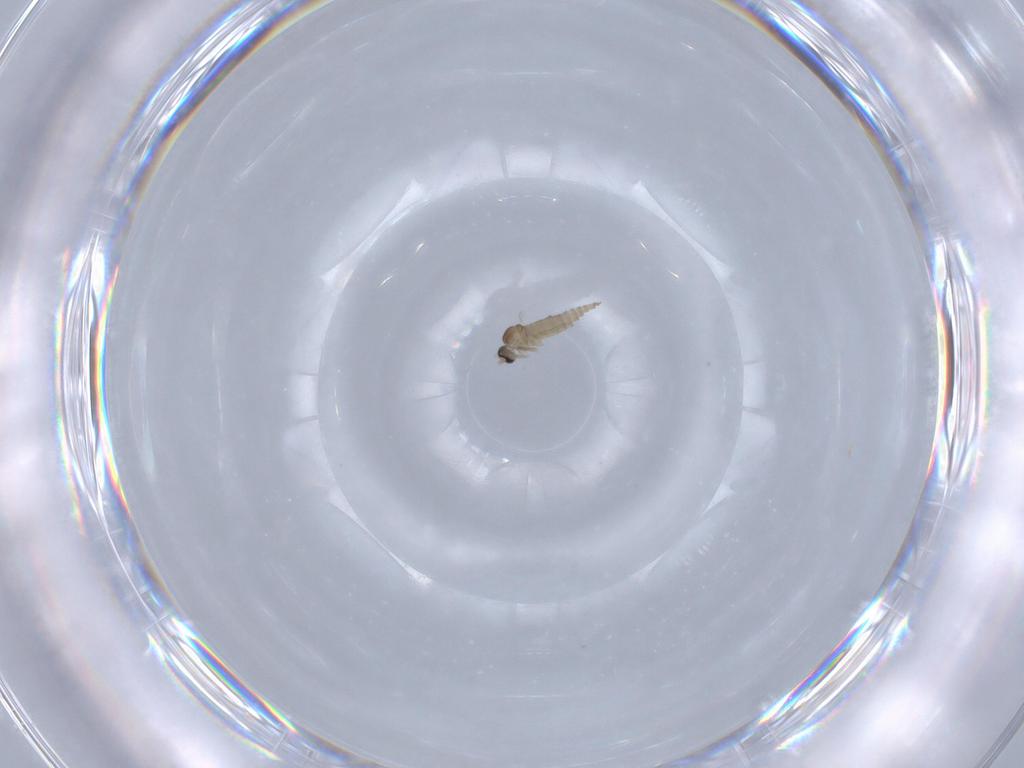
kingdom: Animalia
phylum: Arthropoda
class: Insecta
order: Diptera
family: Cecidomyiidae
